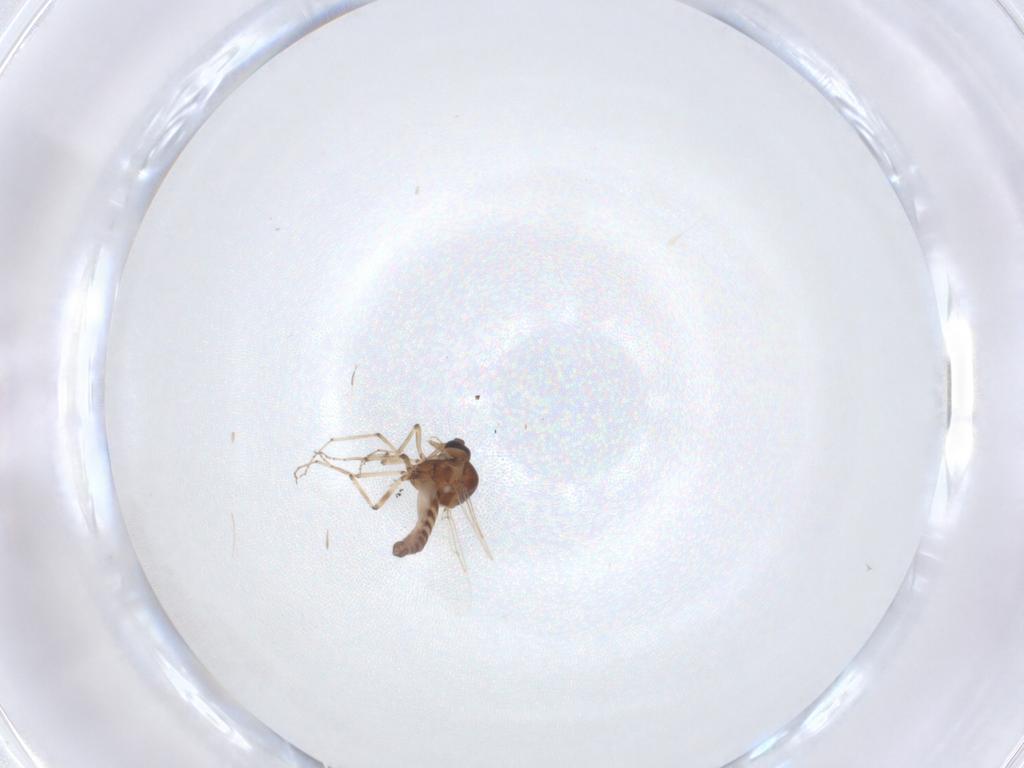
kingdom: Animalia
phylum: Arthropoda
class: Insecta
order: Diptera
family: Ceratopogonidae
